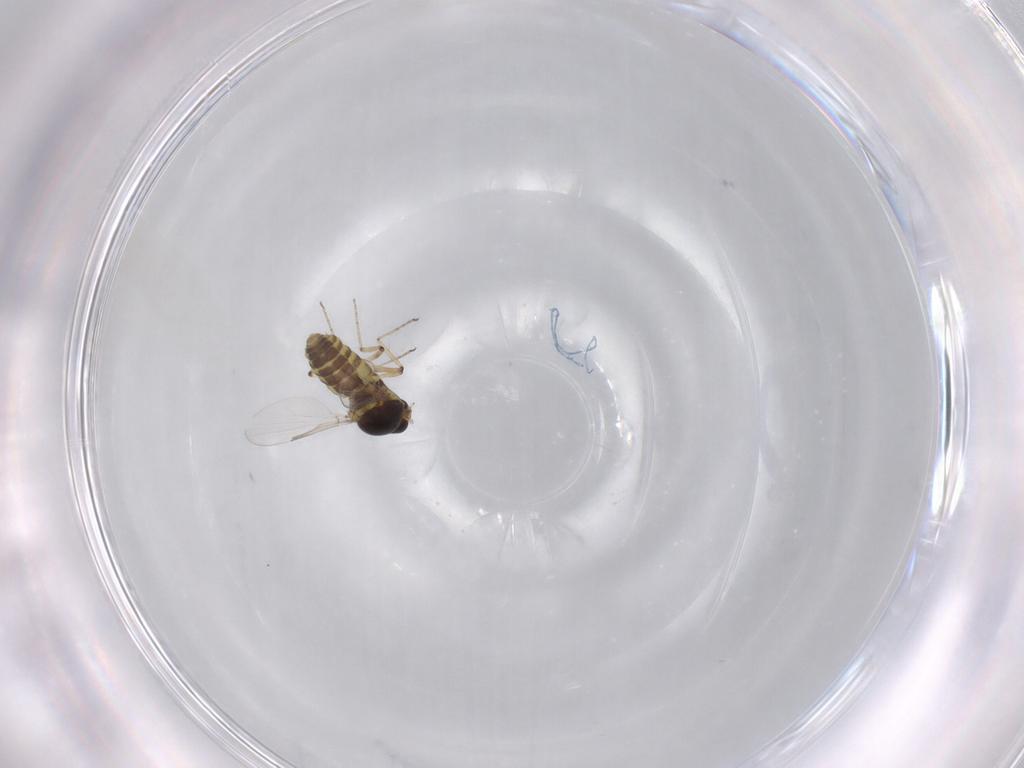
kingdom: Animalia
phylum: Arthropoda
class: Insecta
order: Diptera
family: Ceratopogonidae
